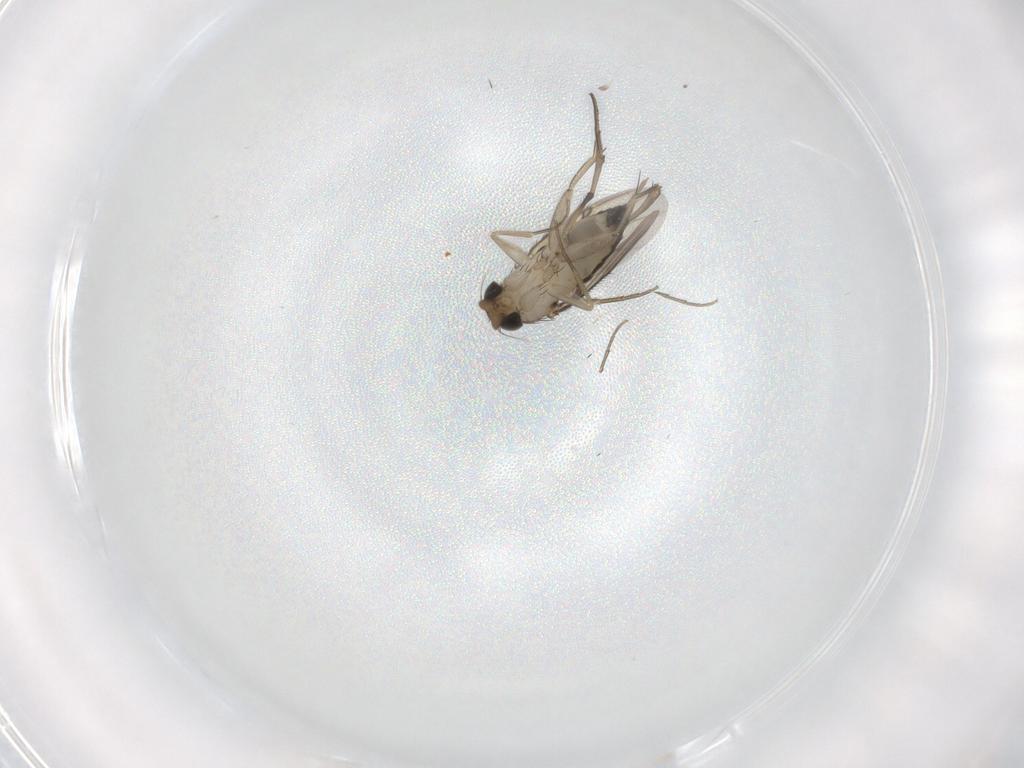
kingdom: Animalia
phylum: Arthropoda
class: Insecta
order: Diptera
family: Phoridae
